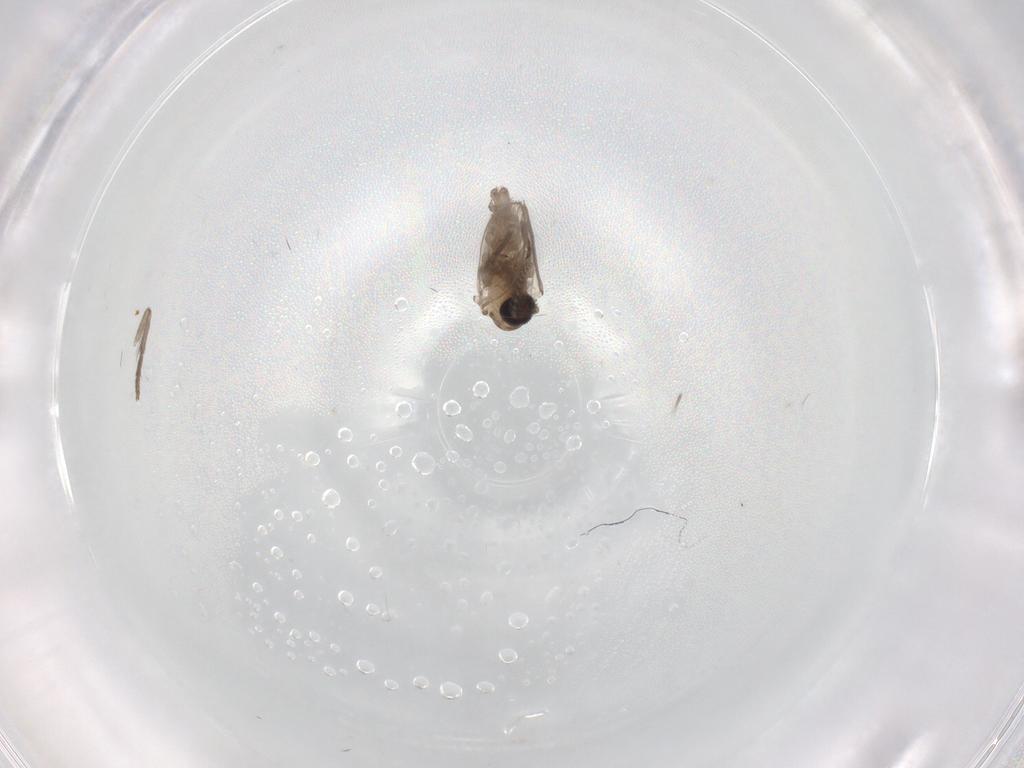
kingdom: Animalia
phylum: Arthropoda
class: Insecta
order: Diptera
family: Psychodidae
